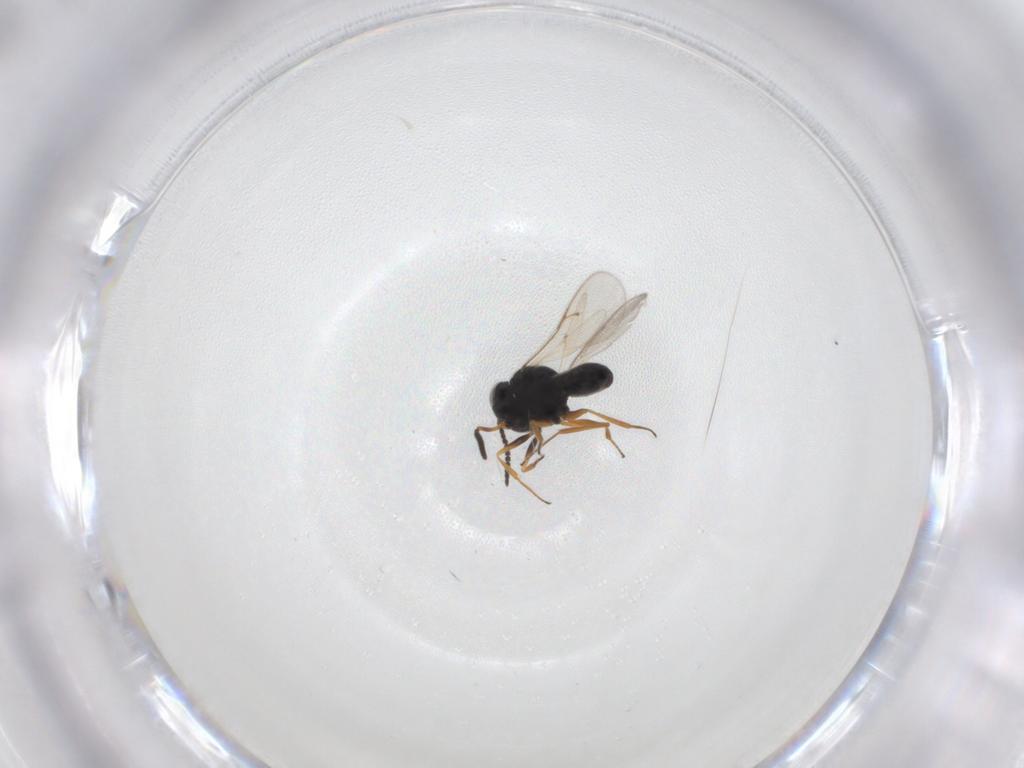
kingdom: Animalia
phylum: Arthropoda
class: Insecta
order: Hymenoptera
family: Scelionidae
